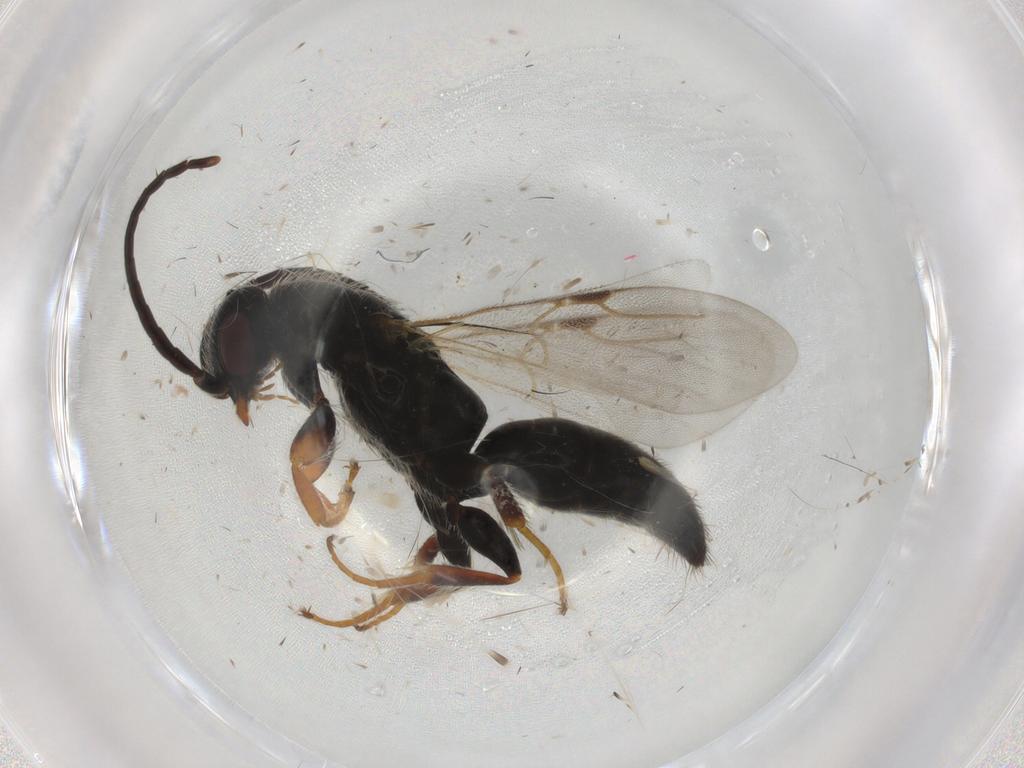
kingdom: Animalia
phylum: Arthropoda
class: Insecta
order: Hymenoptera
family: Bethylidae
